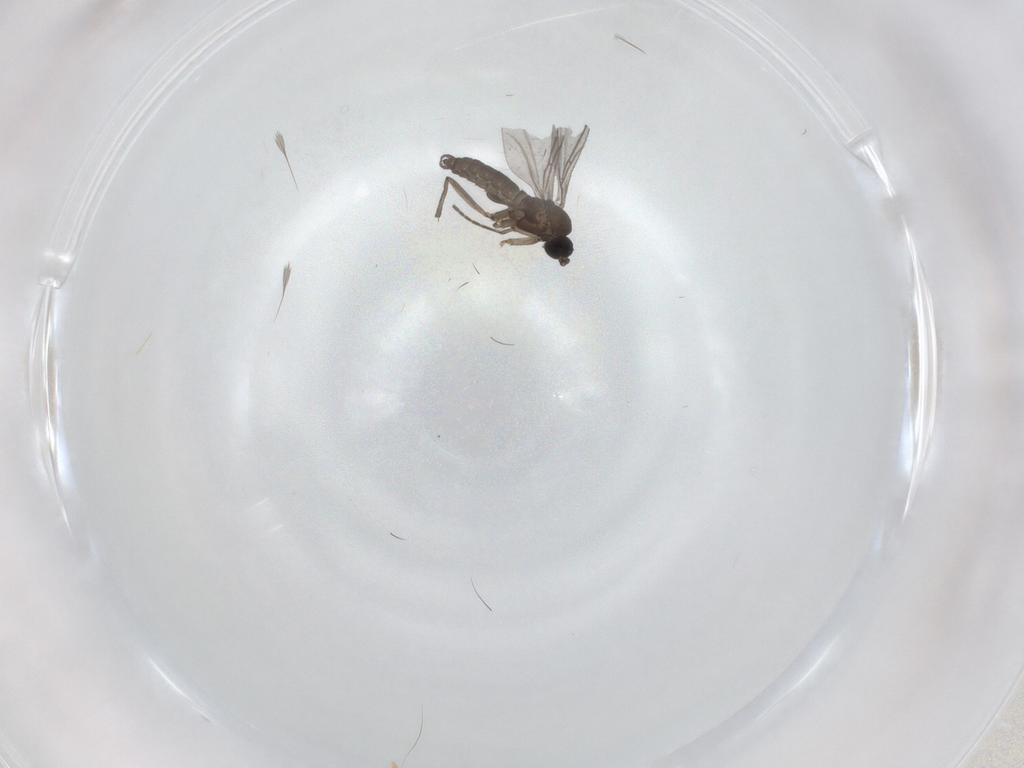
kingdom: Animalia
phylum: Arthropoda
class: Insecta
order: Diptera
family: Sciaridae
